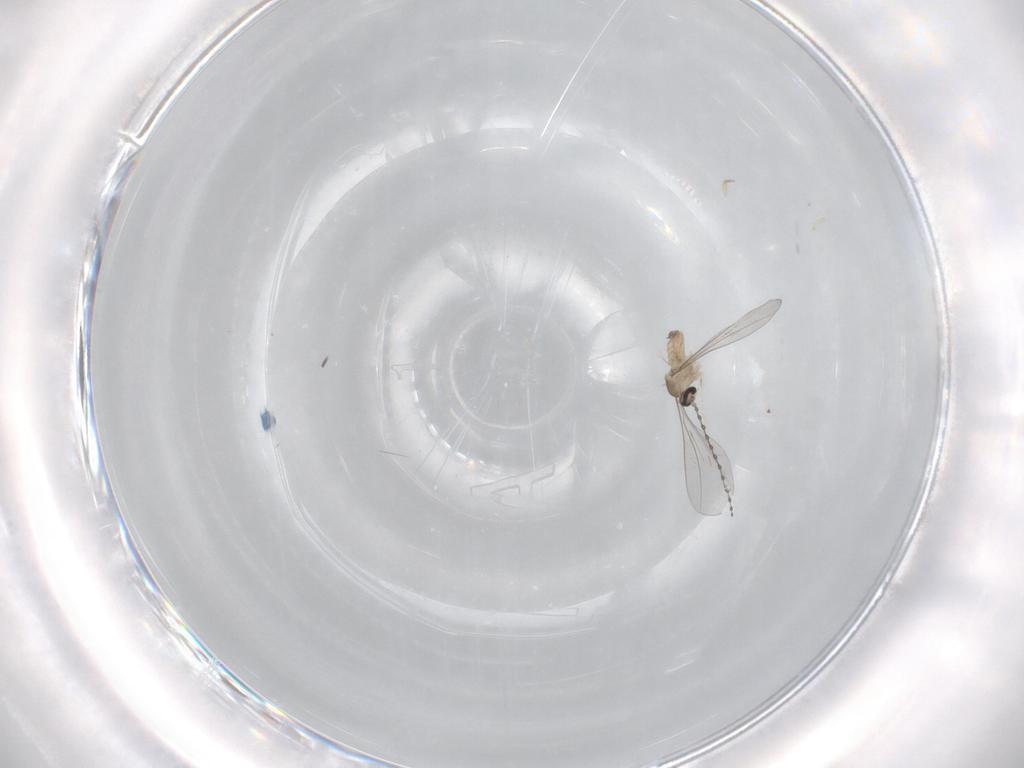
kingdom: Animalia
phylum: Arthropoda
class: Insecta
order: Diptera
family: Cecidomyiidae
